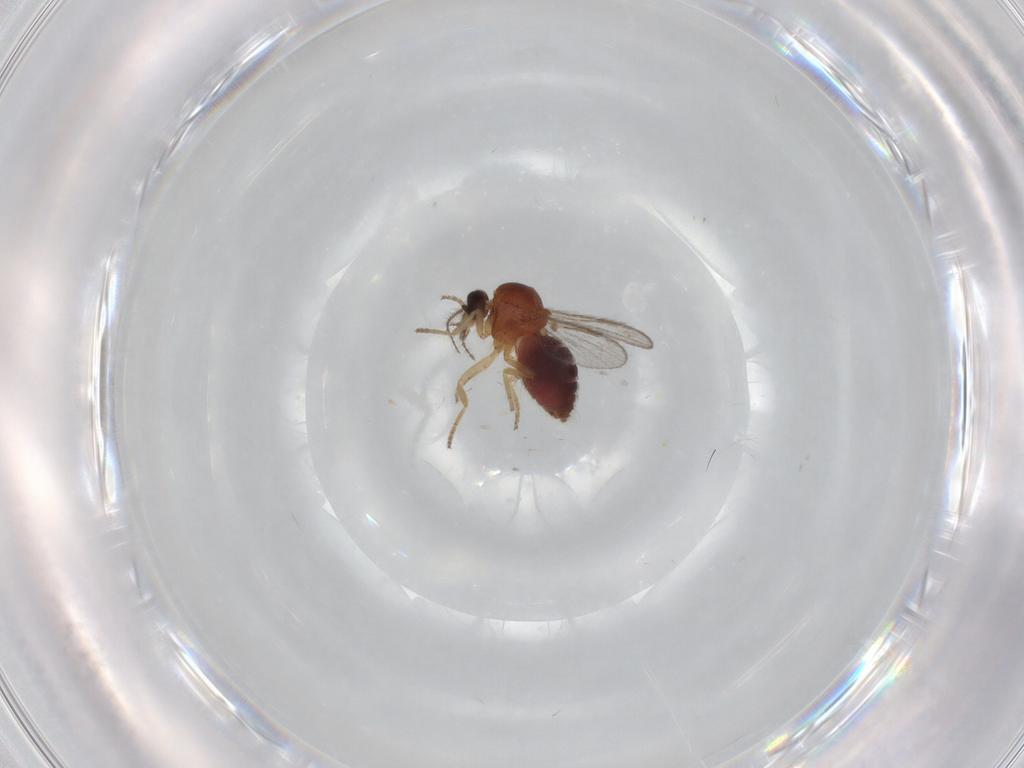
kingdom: Animalia
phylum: Arthropoda
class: Insecta
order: Diptera
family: Ceratopogonidae
